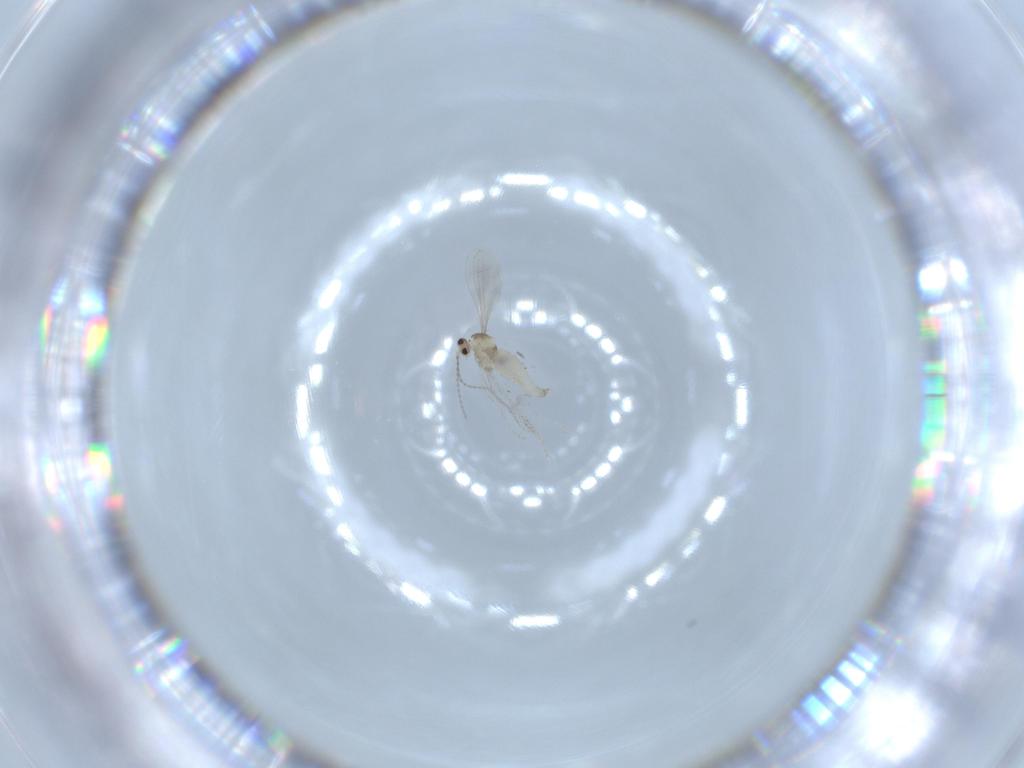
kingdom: Animalia
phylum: Arthropoda
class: Insecta
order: Diptera
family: Cecidomyiidae
